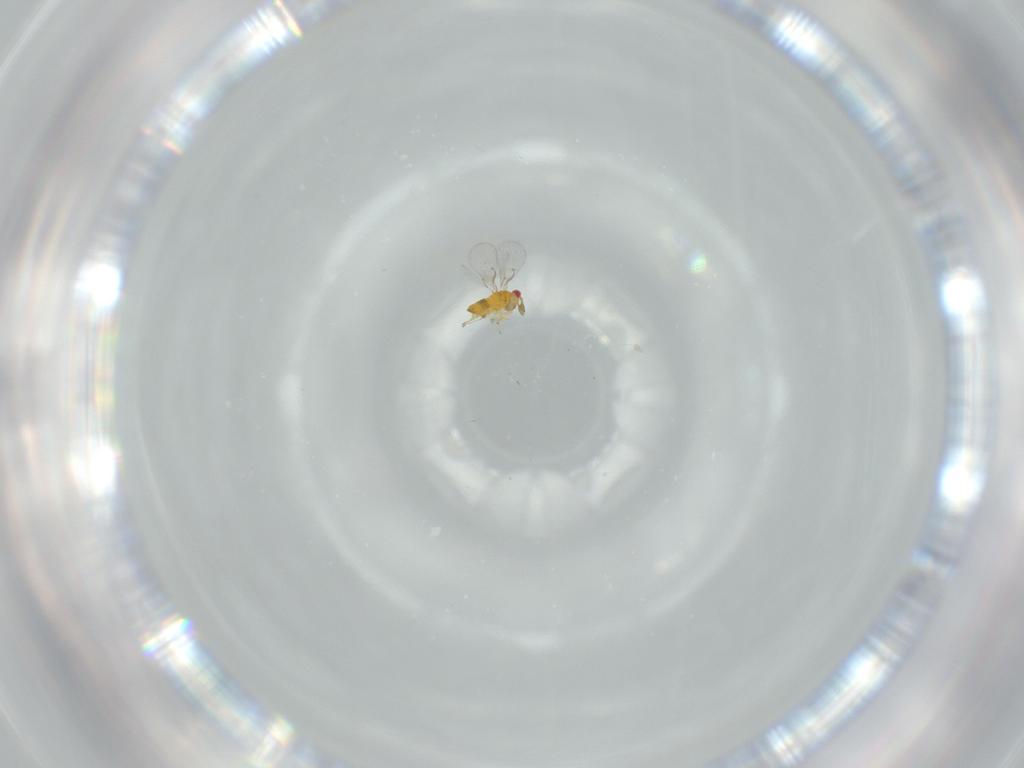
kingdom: Animalia
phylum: Arthropoda
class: Insecta
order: Hymenoptera
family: Trichogrammatidae
